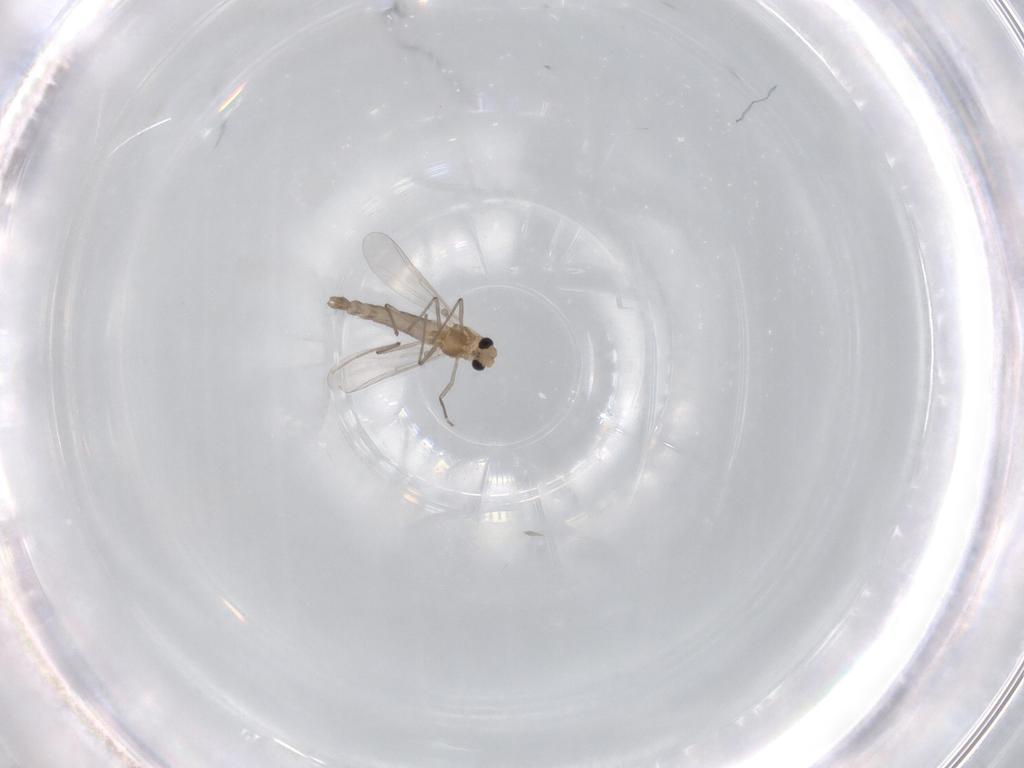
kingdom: Animalia
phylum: Arthropoda
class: Insecta
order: Diptera
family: Chironomidae
